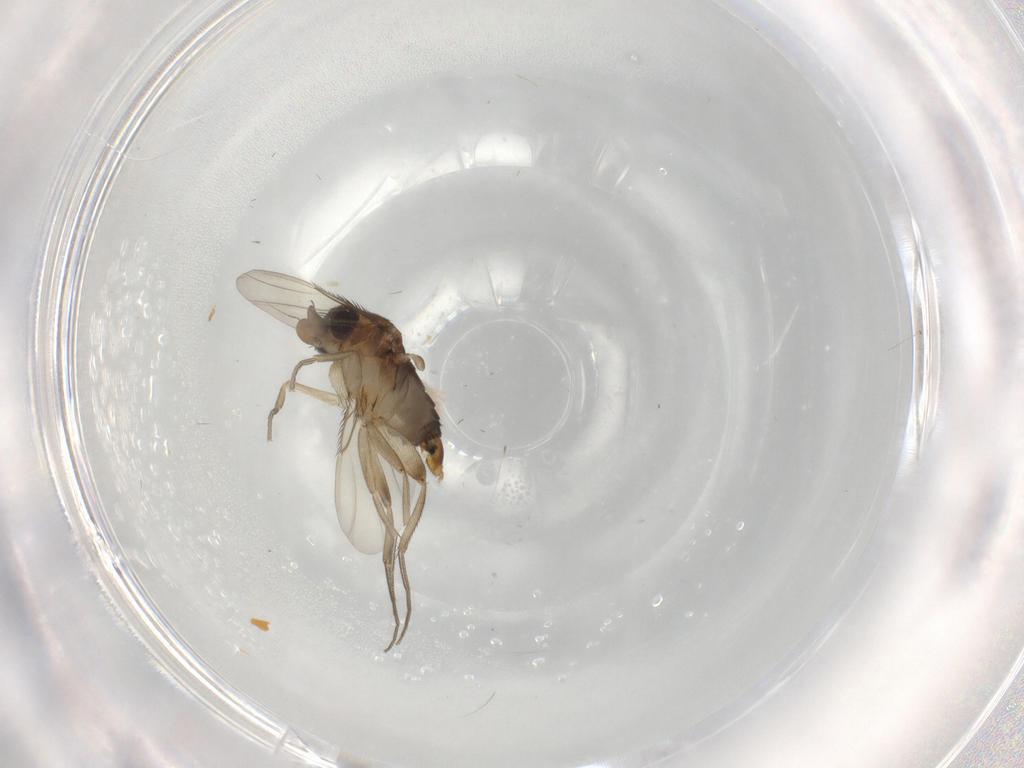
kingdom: Animalia
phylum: Arthropoda
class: Insecta
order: Diptera
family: Phoridae
